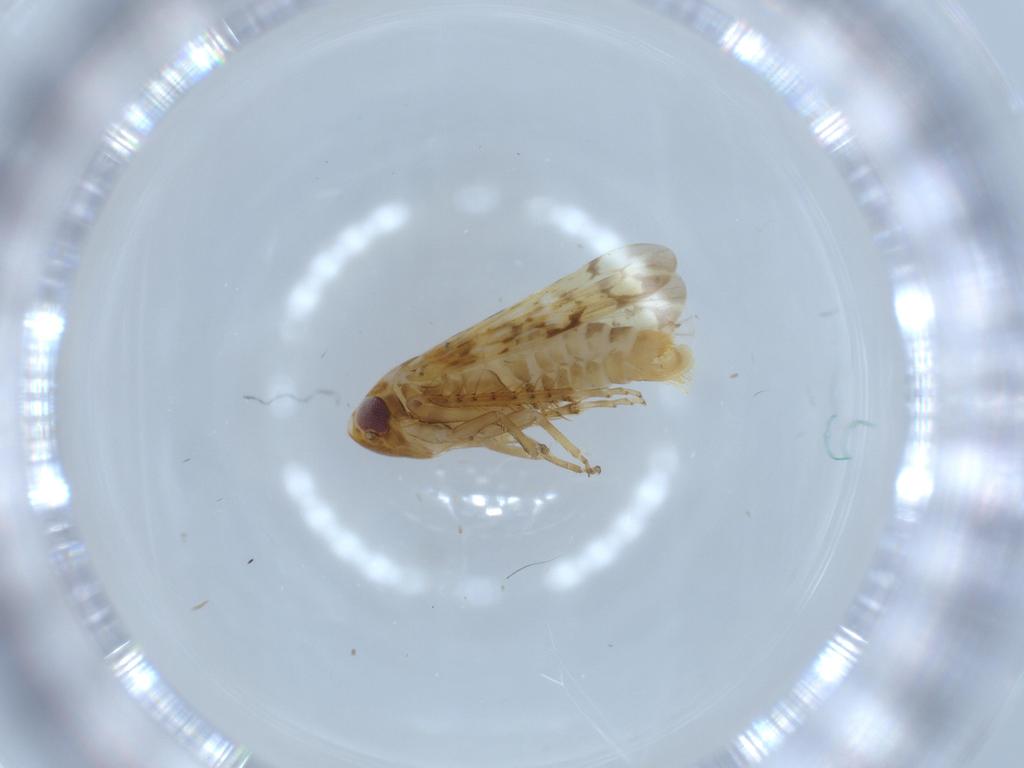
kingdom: Animalia
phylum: Arthropoda
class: Insecta
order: Hemiptera
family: Cicadellidae
